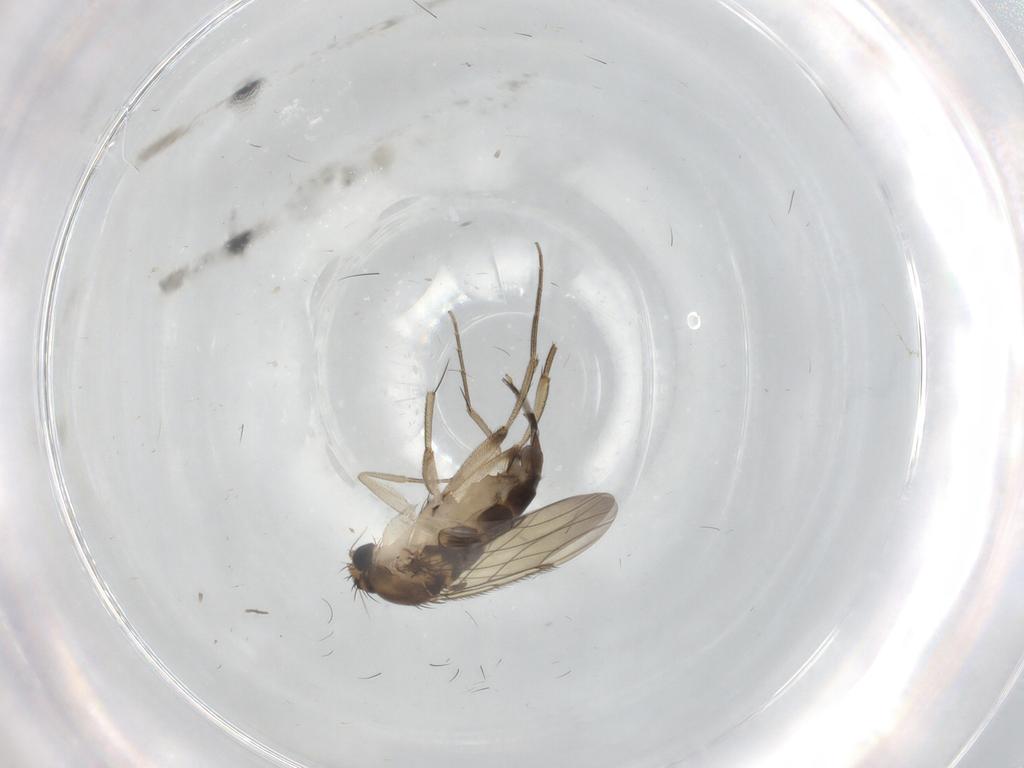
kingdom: Animalia
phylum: Arthropoda
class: Insecta
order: Diptera
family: Phoridae
